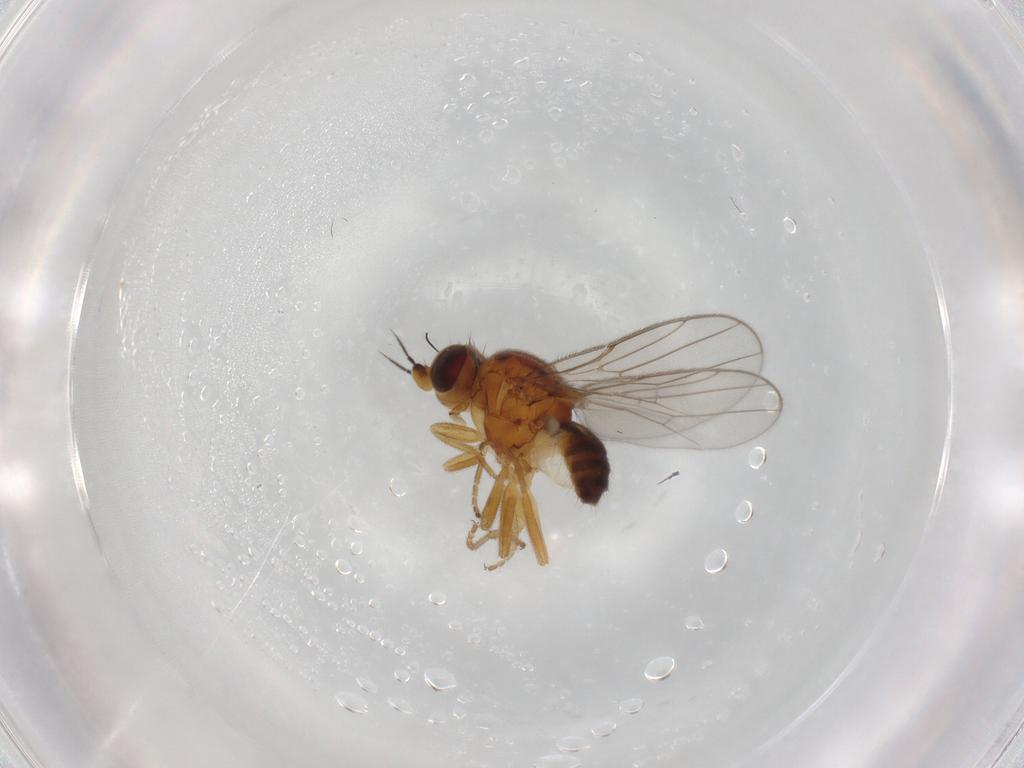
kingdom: Animalia
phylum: Arthropoda
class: Insecta
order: Diptera
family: Chloropidae
